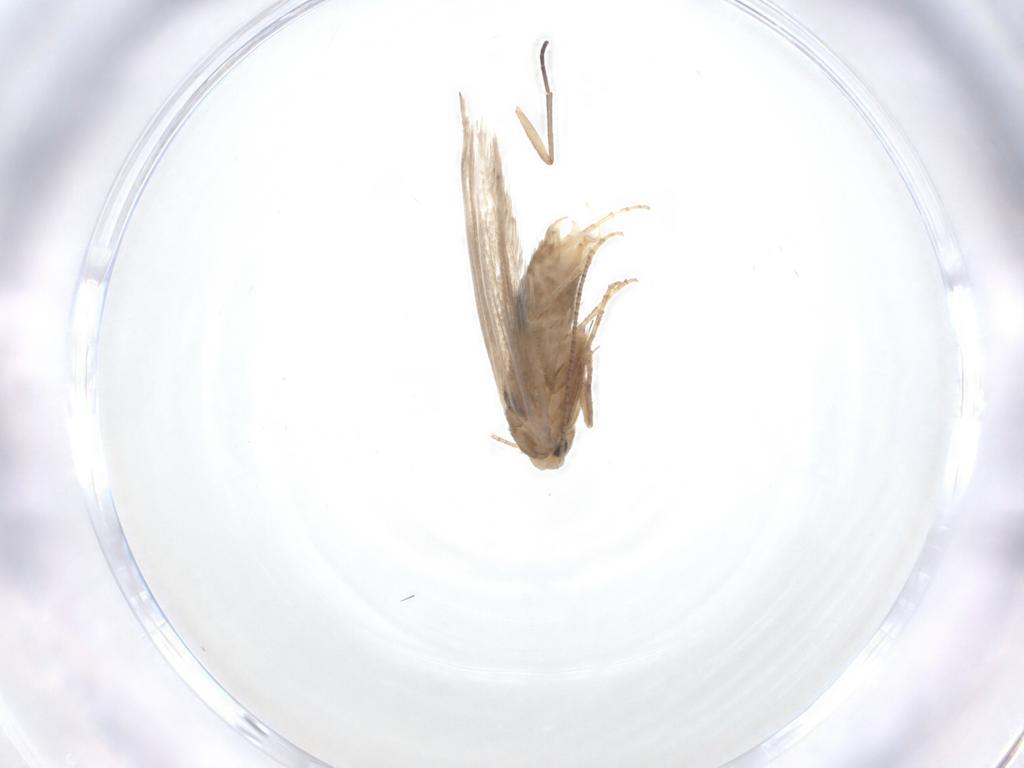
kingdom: Animalia
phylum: Arthropoda
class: Insecta
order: Lepidoptera
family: Bucculatricidae
